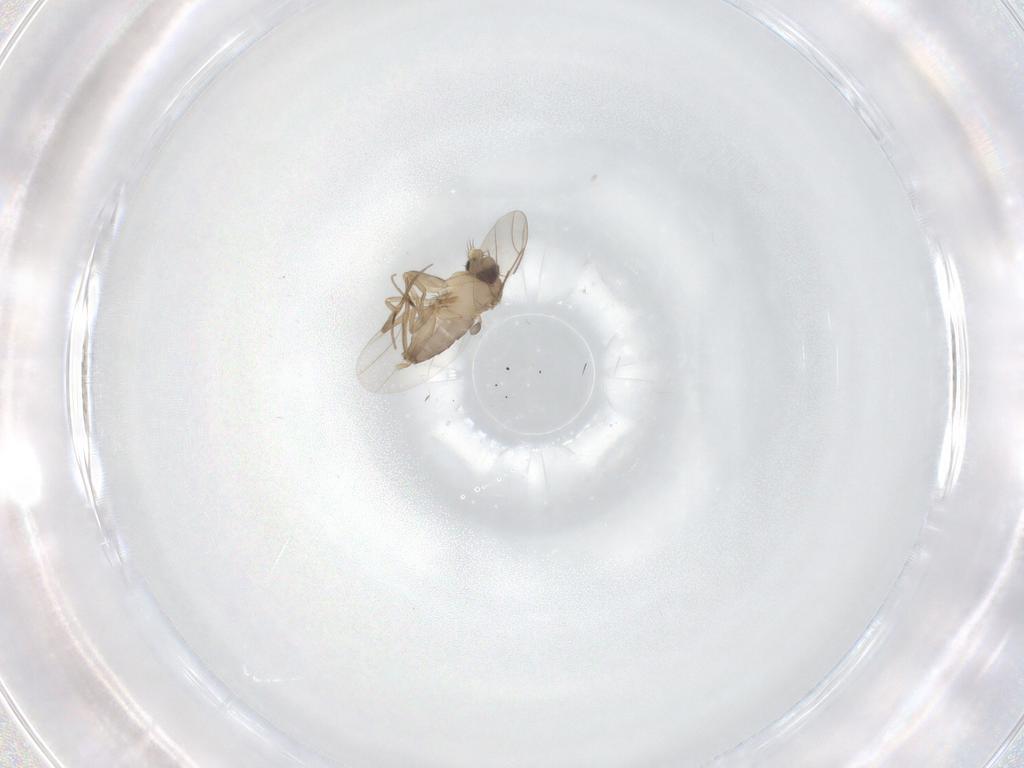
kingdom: Animalia
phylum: Arthropoda
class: Insecta
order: Diptera
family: Phoridae
